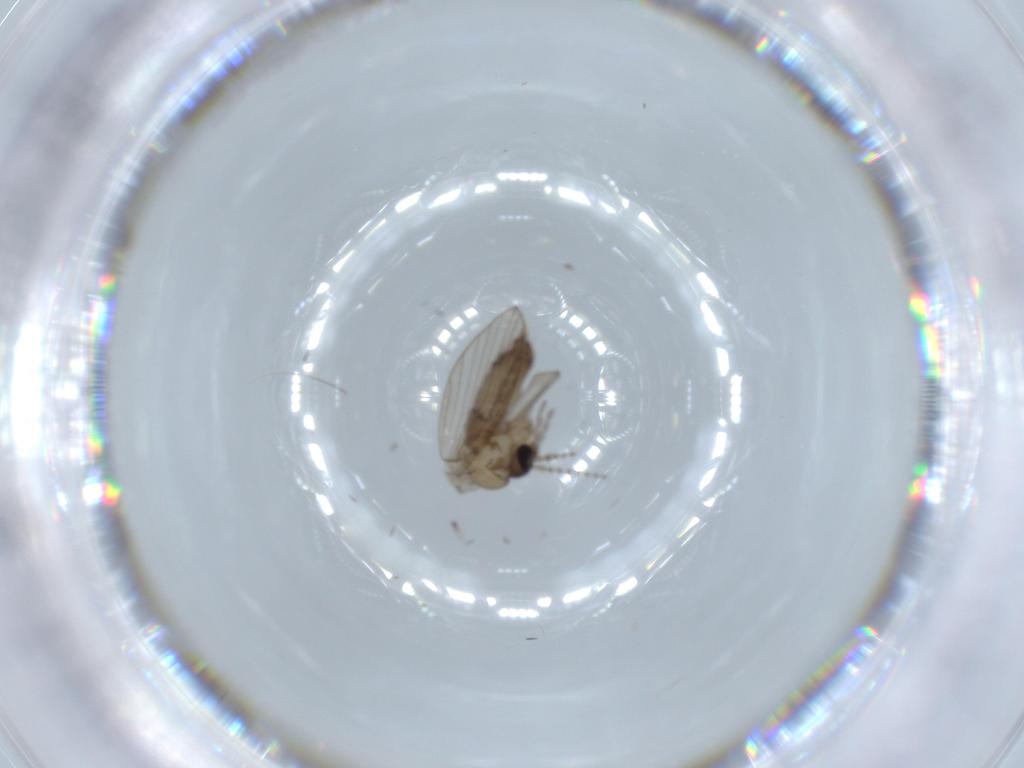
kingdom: Animalia
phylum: Arthropoda
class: Insecta
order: Diptera
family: Psychodidae
